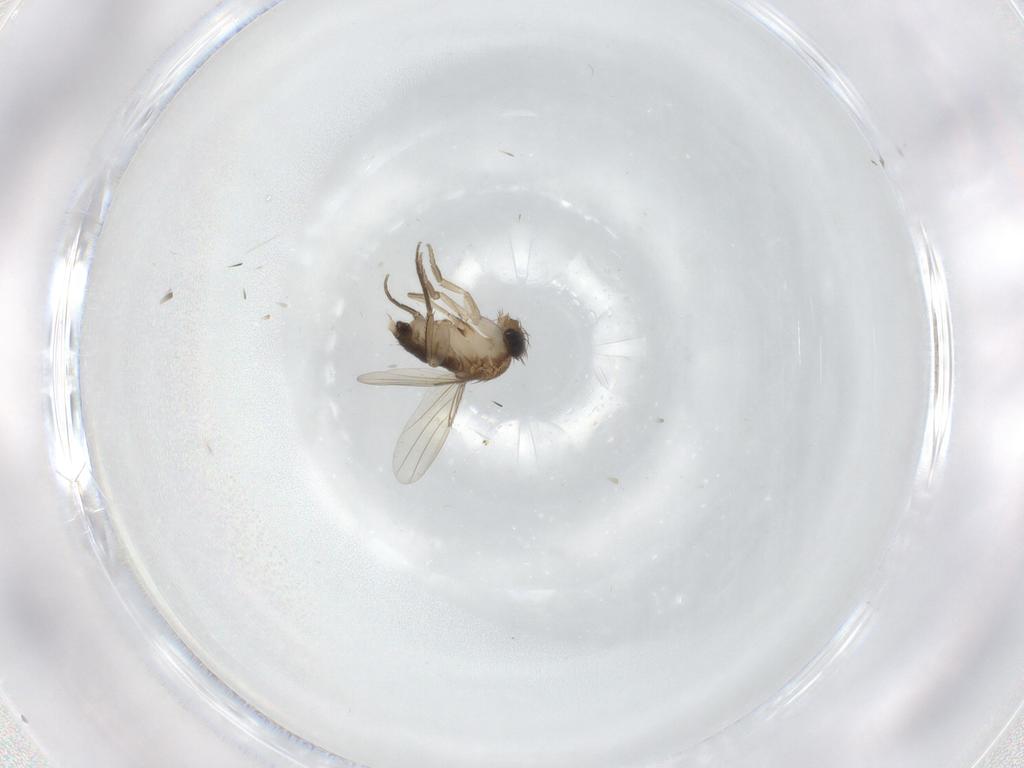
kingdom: Animalia
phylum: Arthropoda
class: Insecta
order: Diptera
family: Phoridae
